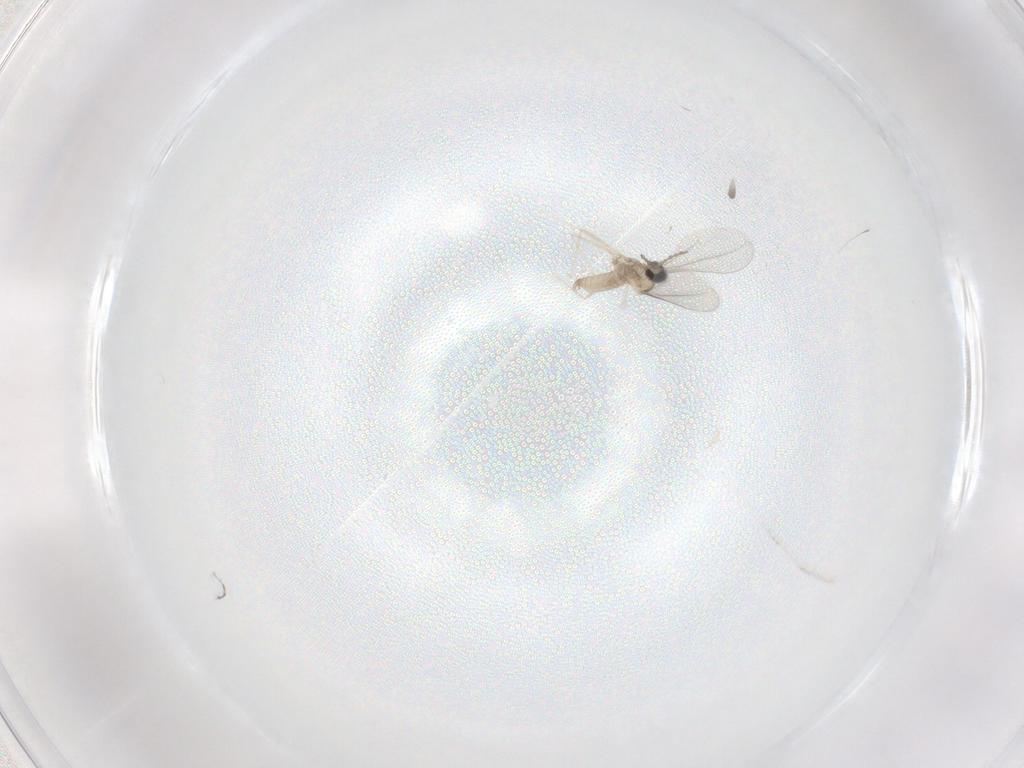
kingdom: Animalia
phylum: Arthropoda
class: Insecta
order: Diptera
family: Cecidomyiidae
